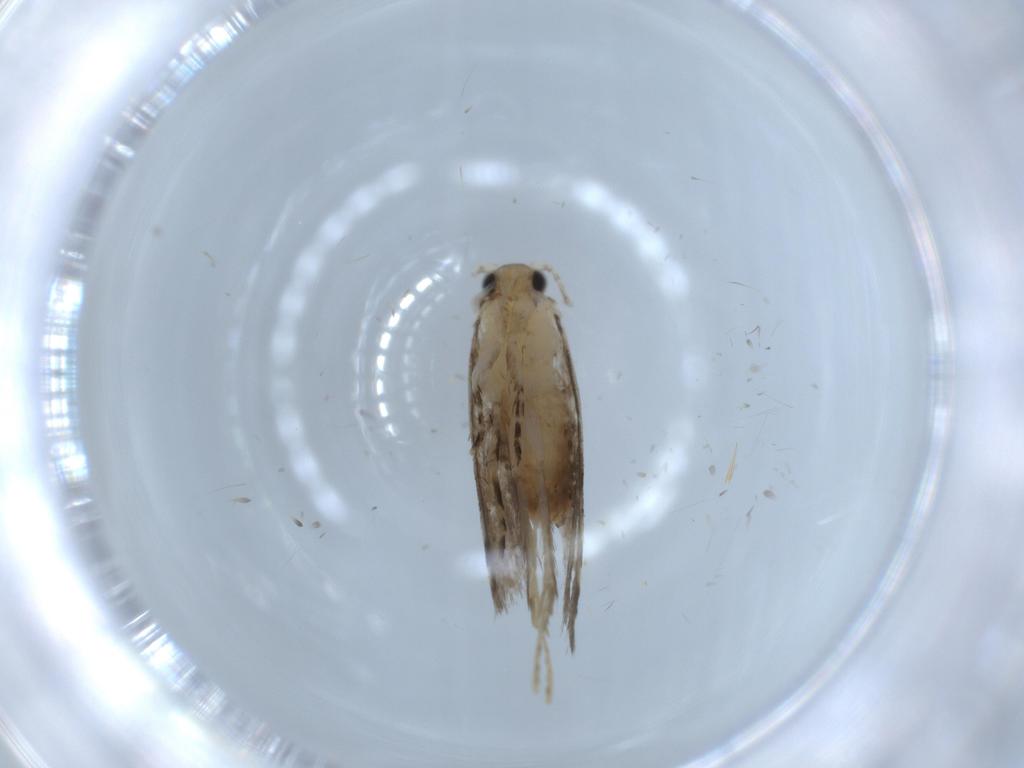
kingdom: Animalia
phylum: Arthropoda
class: Insecta
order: Lepidoptera
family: Tineidae
